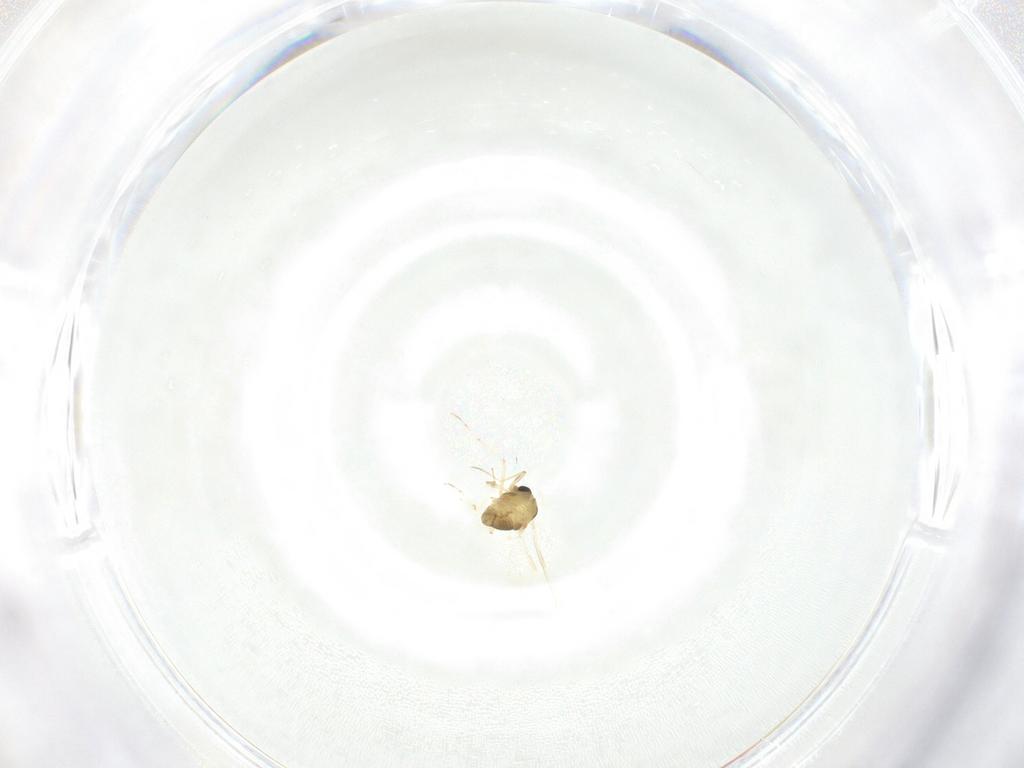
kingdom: Animalia
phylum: Arthropoda
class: Insecta
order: Diptera
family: Chironomidae
